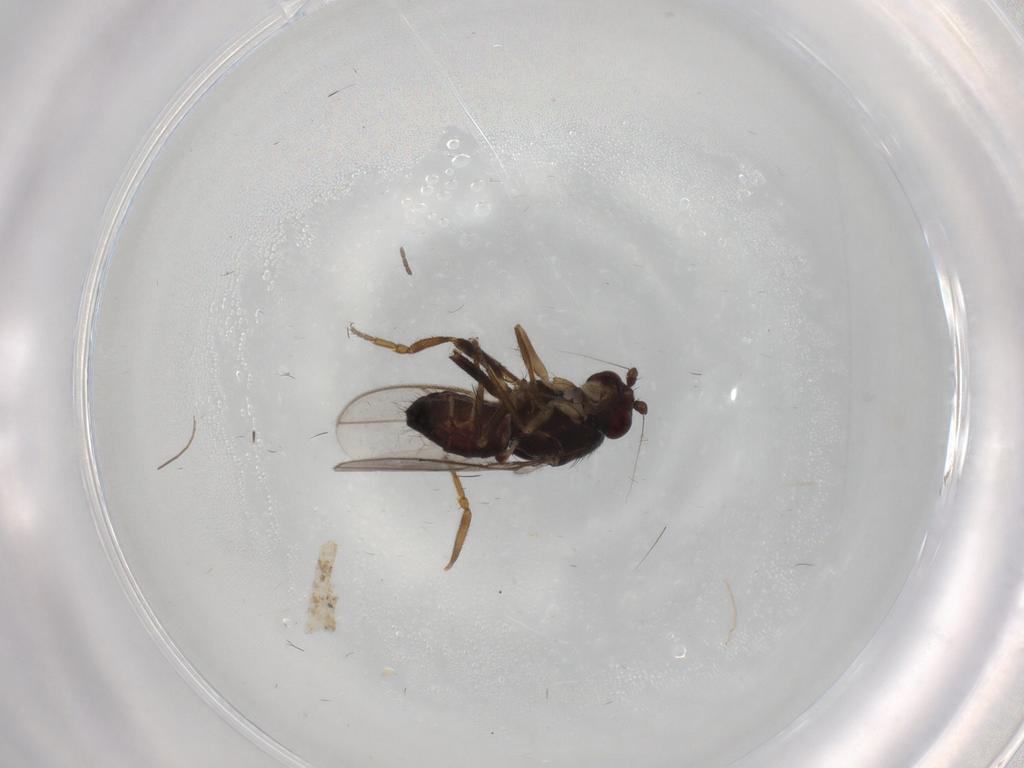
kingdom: Animalia
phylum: Arthropoda
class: Insecta
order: Diptera
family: Sphaeroceridae
